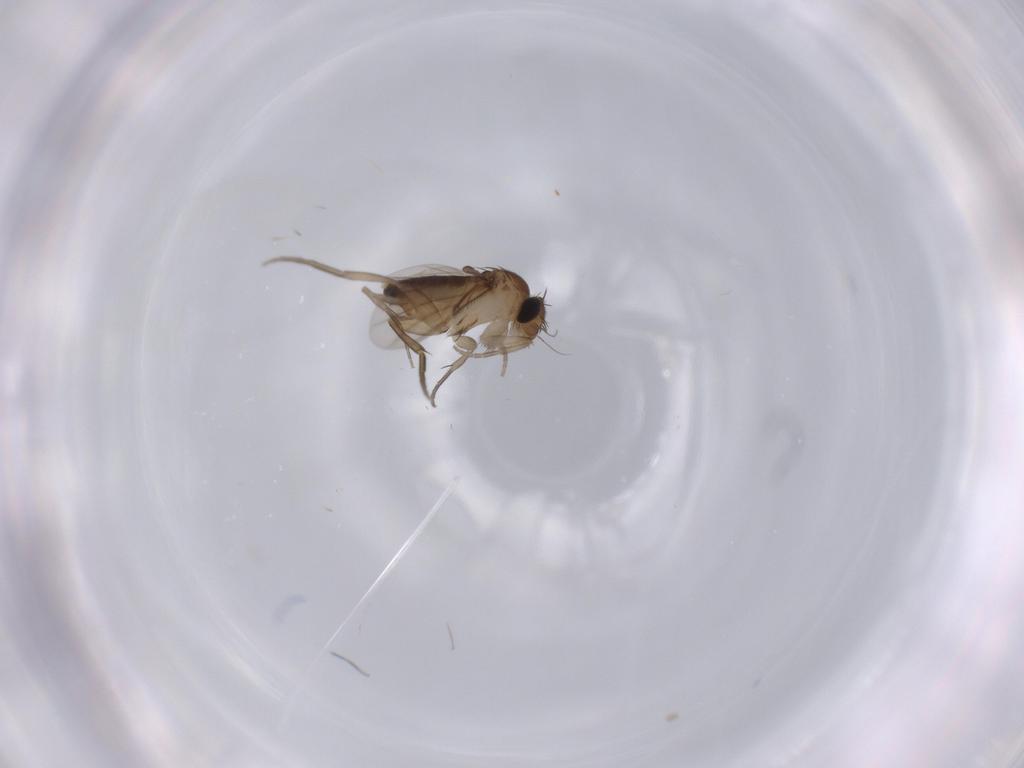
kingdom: Animalia
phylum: Arthropoda
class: Insecta
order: Diptera
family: Phoridae
